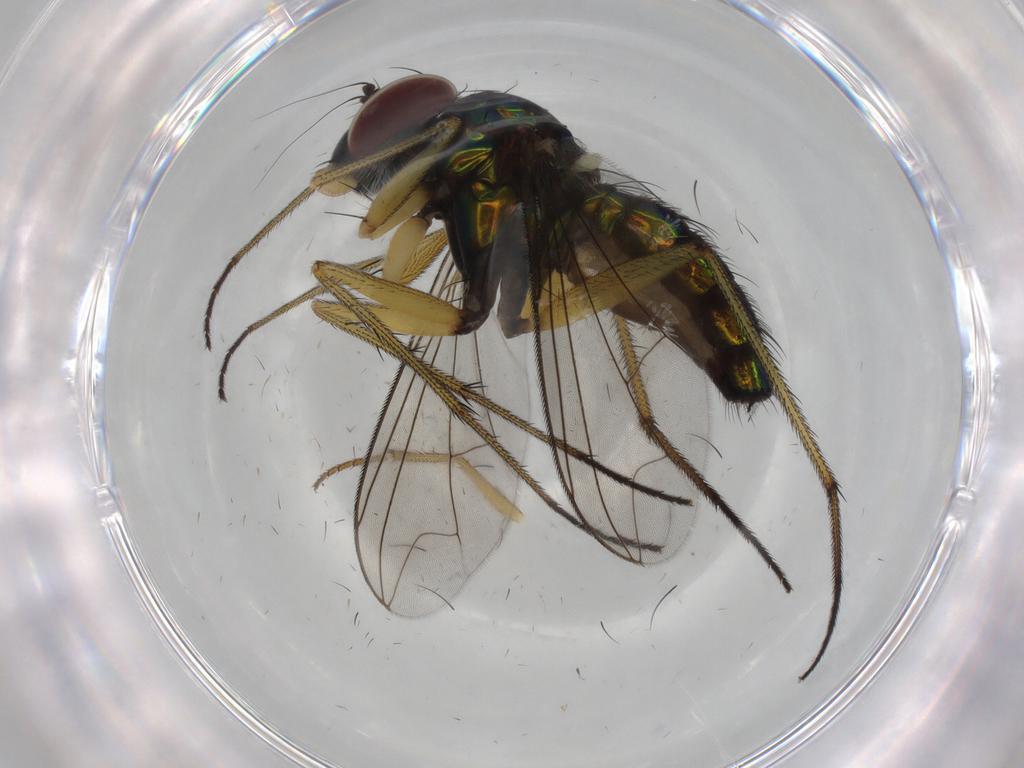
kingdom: Animalia
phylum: Arthropoda
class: Insecta
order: Diptera
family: Dolichopodidae
